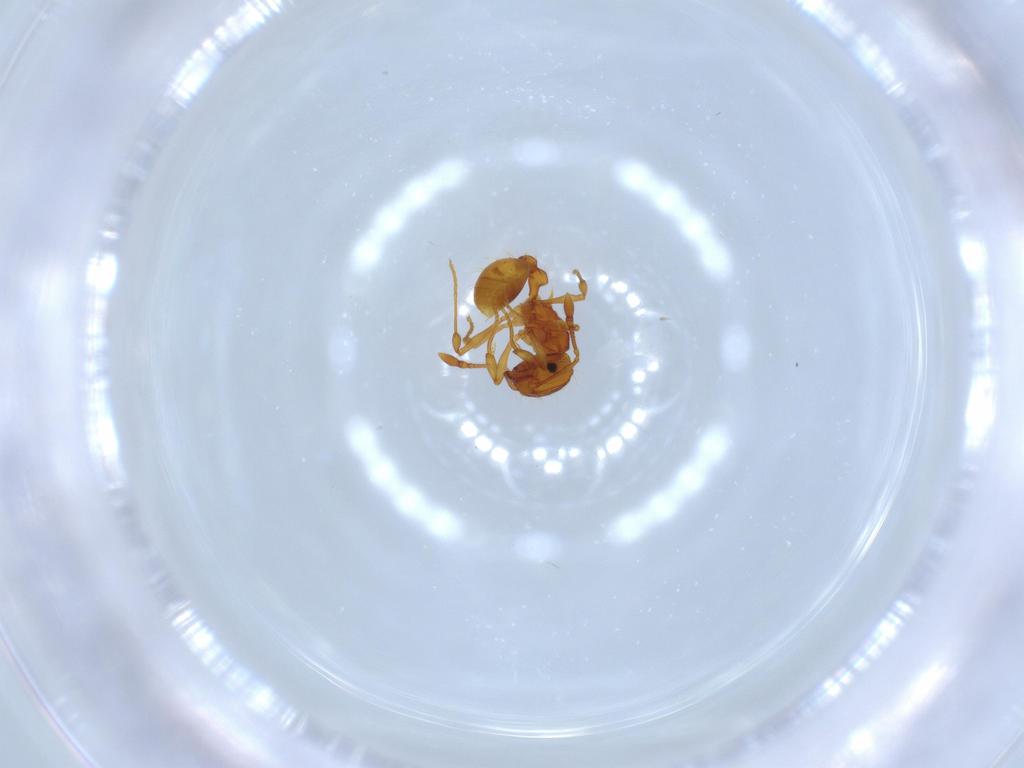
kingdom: Animalia
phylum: Arthropoda
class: Insecta
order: Hymenoptera
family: Formicidae
